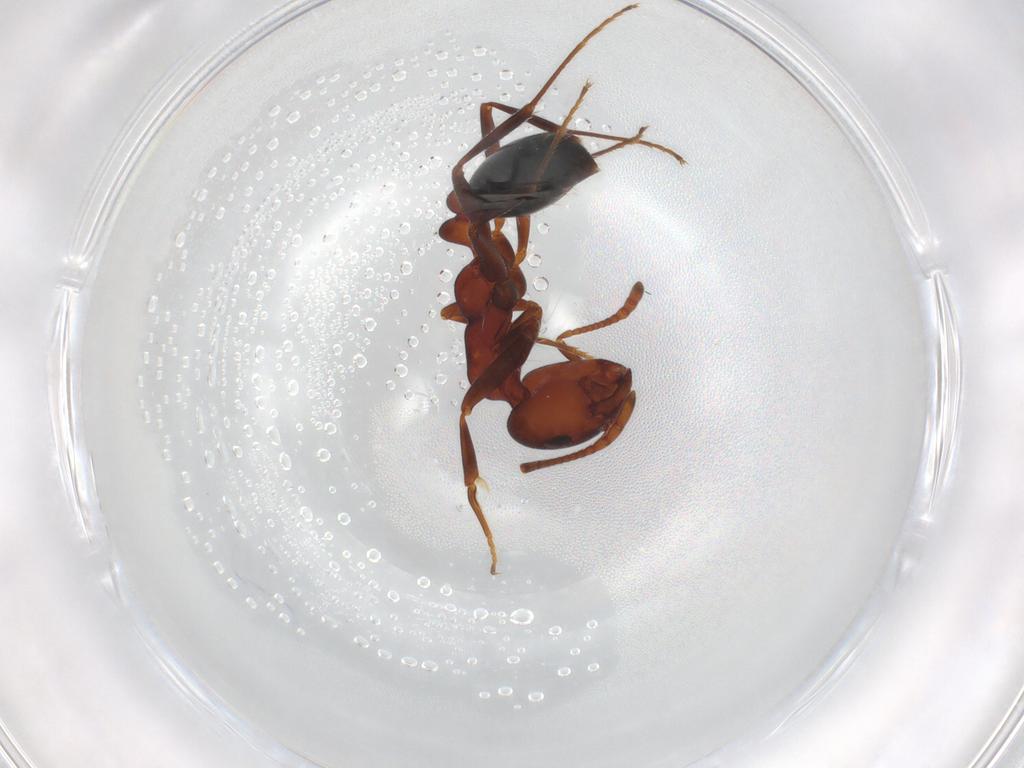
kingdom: Animalia
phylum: Arthropoda
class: Insecta
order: Hymenoptera
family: Formicidae
